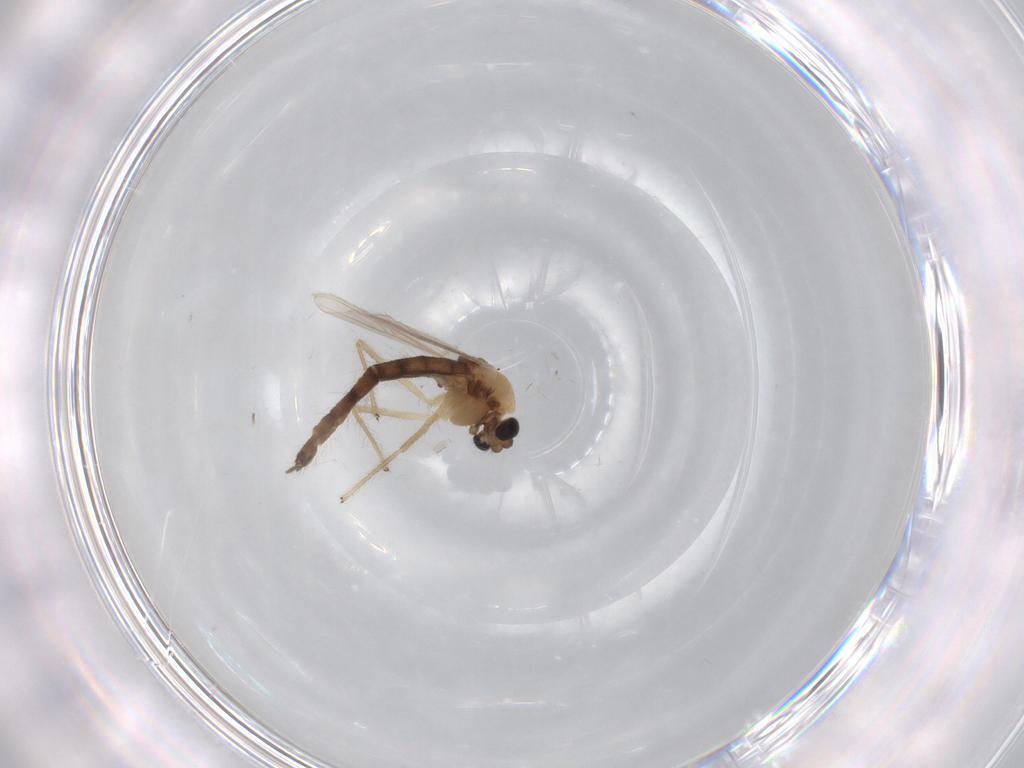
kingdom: Animalia
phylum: Arthropoda
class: Insecta
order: Diptera
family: Chironomidae
